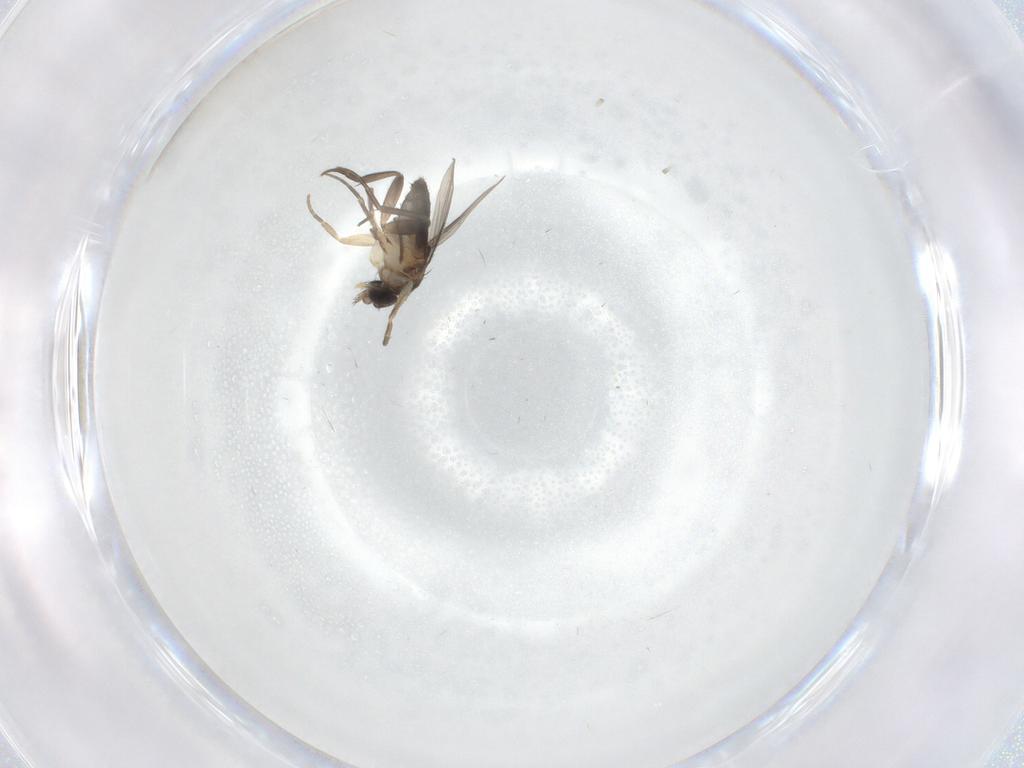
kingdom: Animalia
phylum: Arthropoda
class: Insecta
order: Diptera
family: Phoridae
